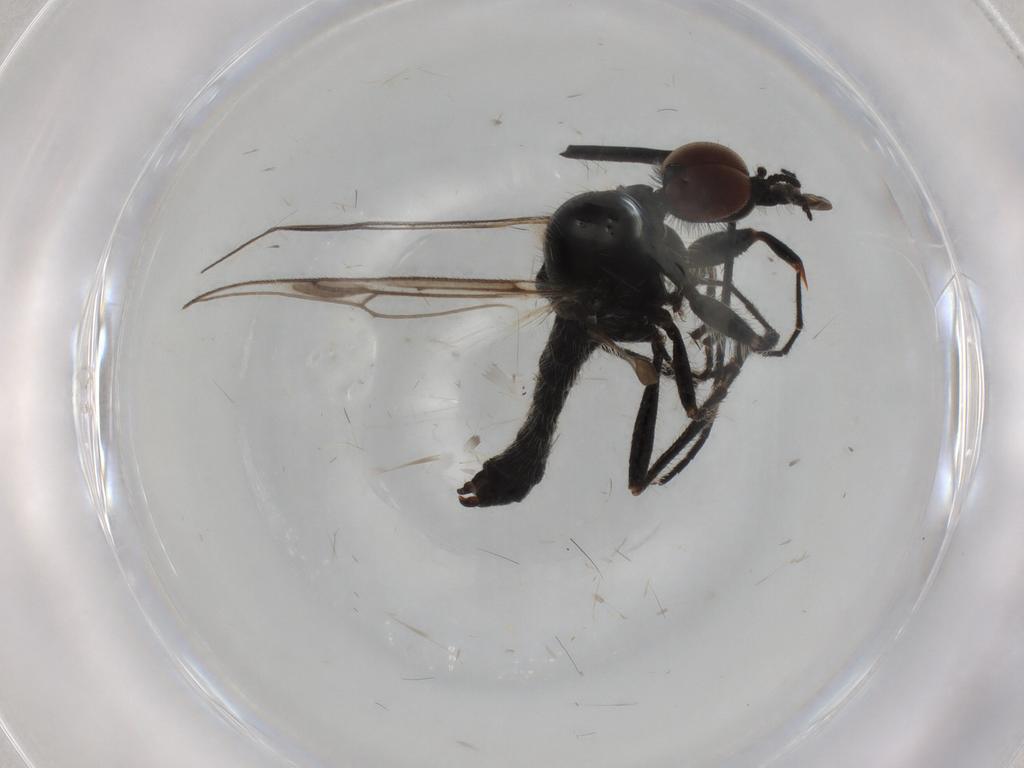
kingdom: Animalia
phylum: Arthropoda
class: Insecta
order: Diptera
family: Bibionidae
